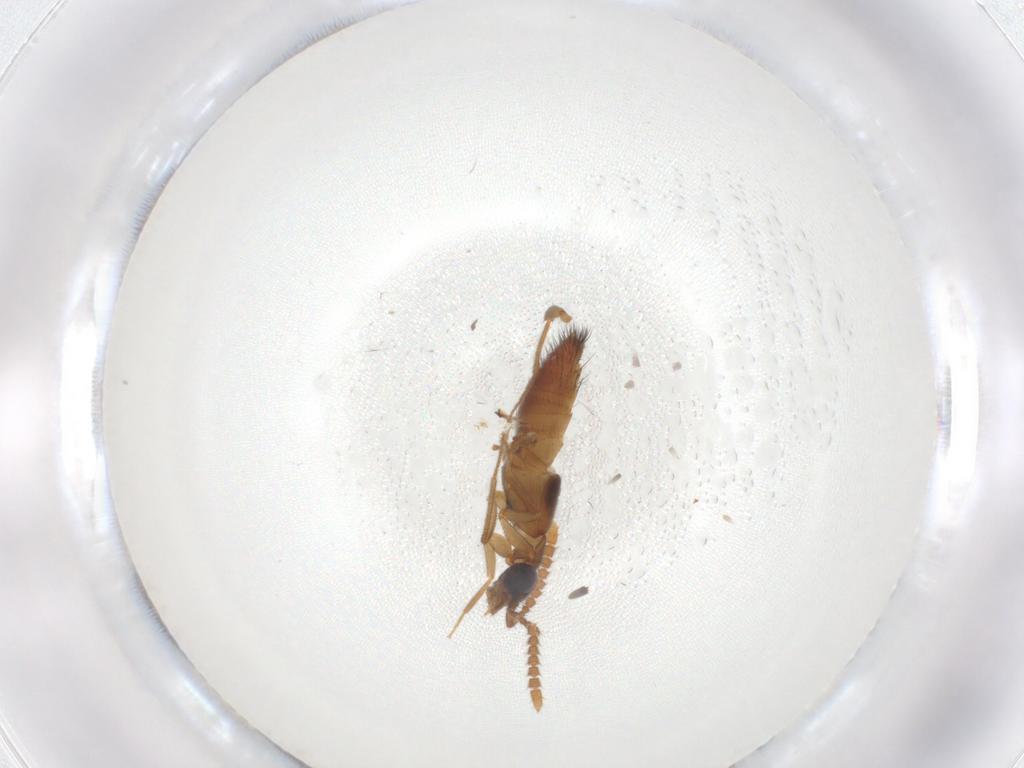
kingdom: Animalia
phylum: Arthropoda
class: Insecta
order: Coleoptera
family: Staphylinidae
